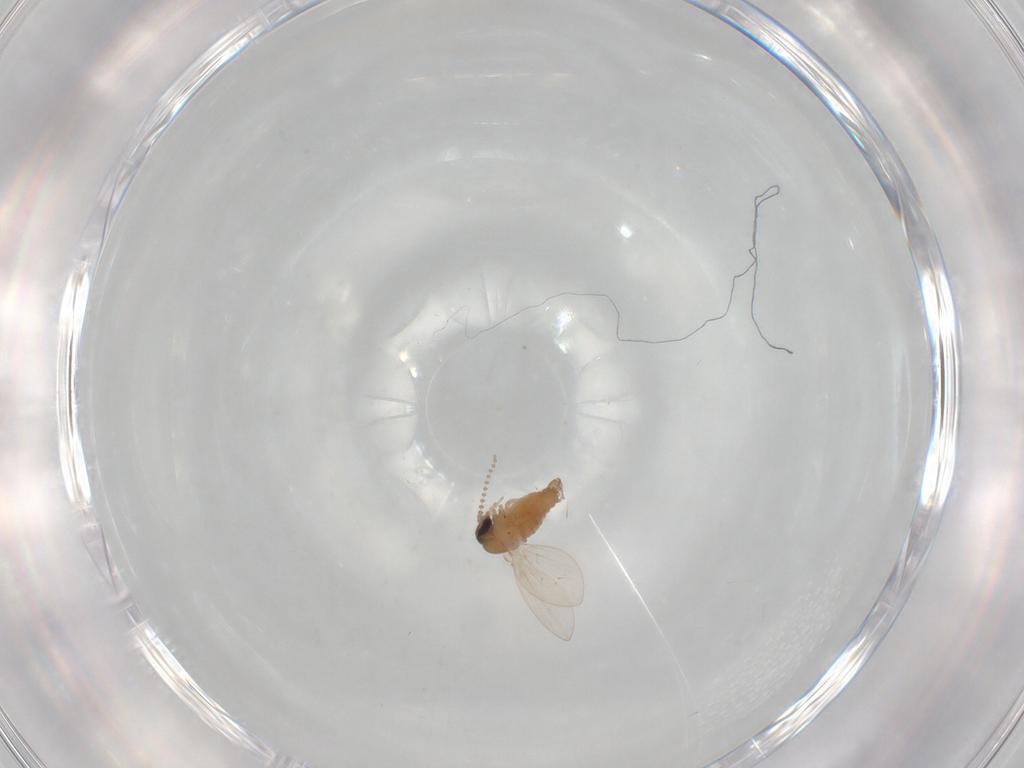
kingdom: Animalia
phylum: Arthropoda
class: Insecta
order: Diptera
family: Psychodidae
